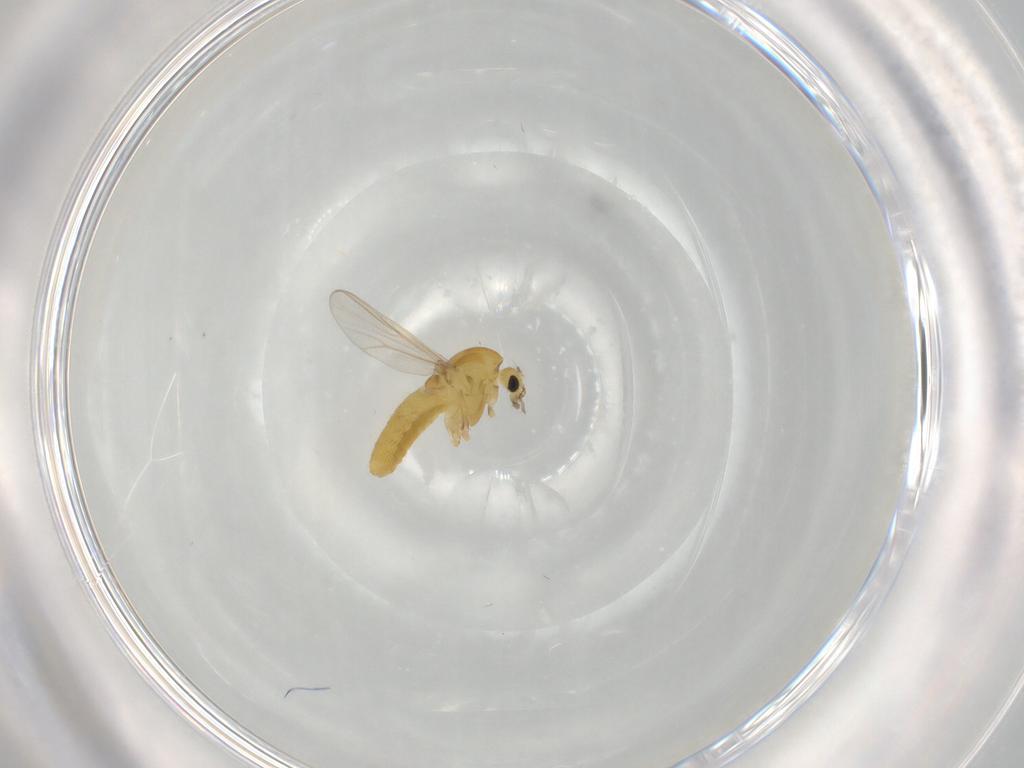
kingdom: Animalia
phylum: Arthropoda
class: Insecta
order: Diptera
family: Chironomidae
